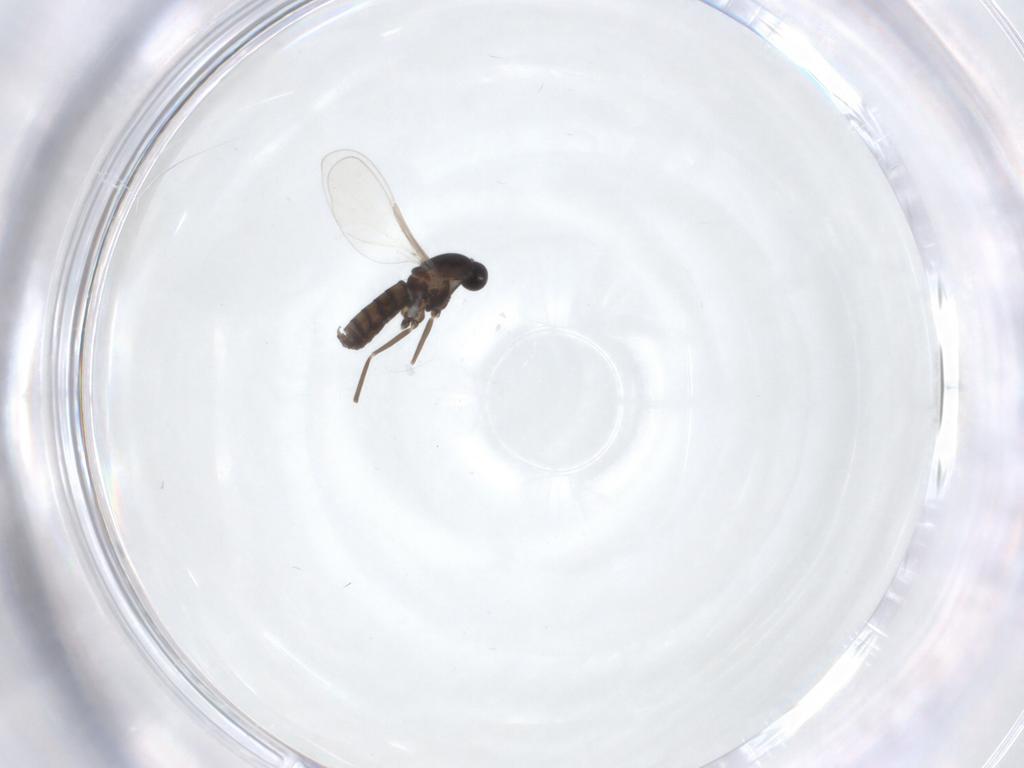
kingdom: Animalia
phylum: Arthropoda
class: Insecta
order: Diptera
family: Cecidomyiidae
